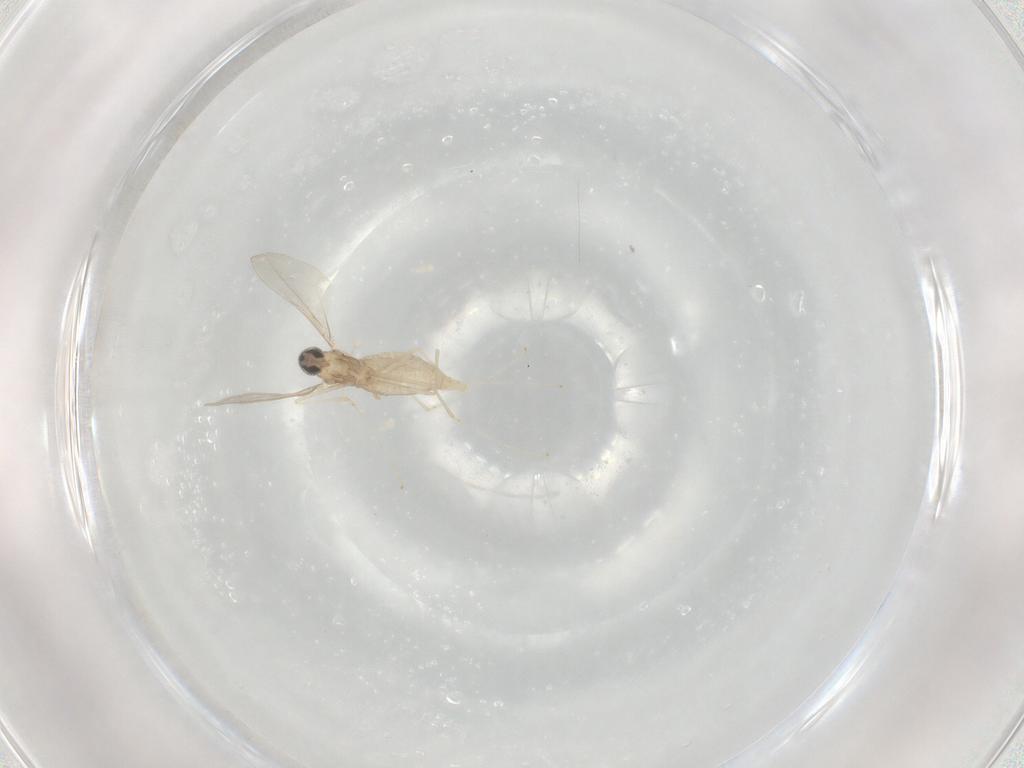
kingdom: Animalia
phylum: Arthropoda
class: Insecta
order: Diptera
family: Cecidomyiidae
